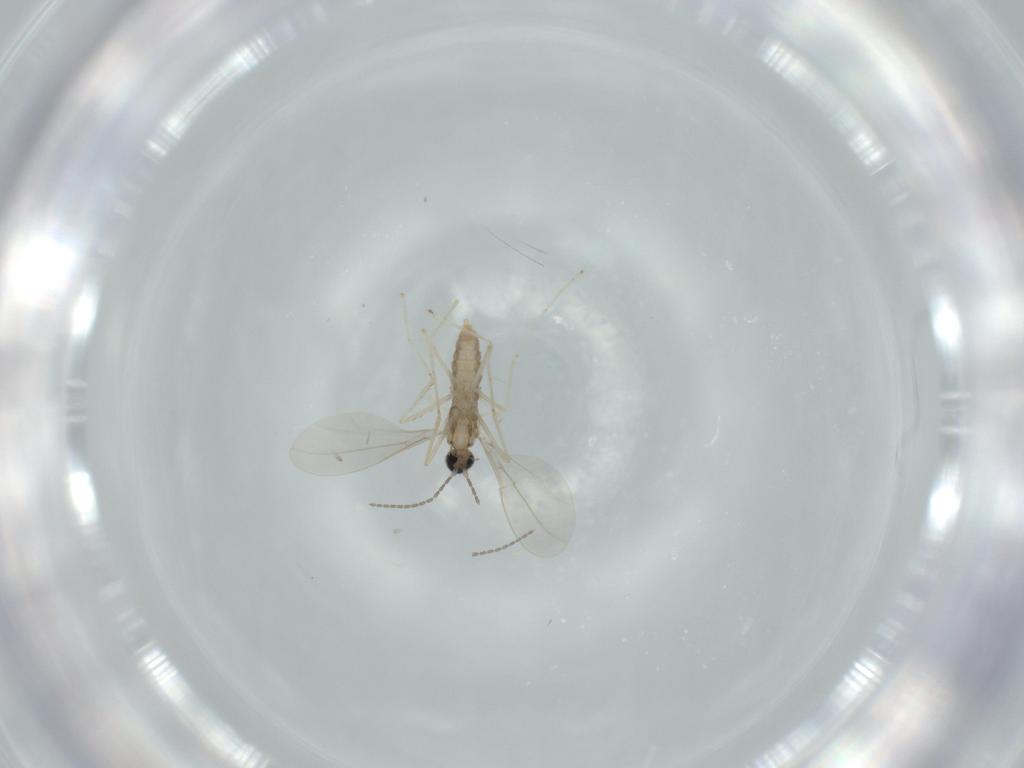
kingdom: Animalia
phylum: Arthropoda
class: Insecta
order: Diptera
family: Cecidomyiidae
